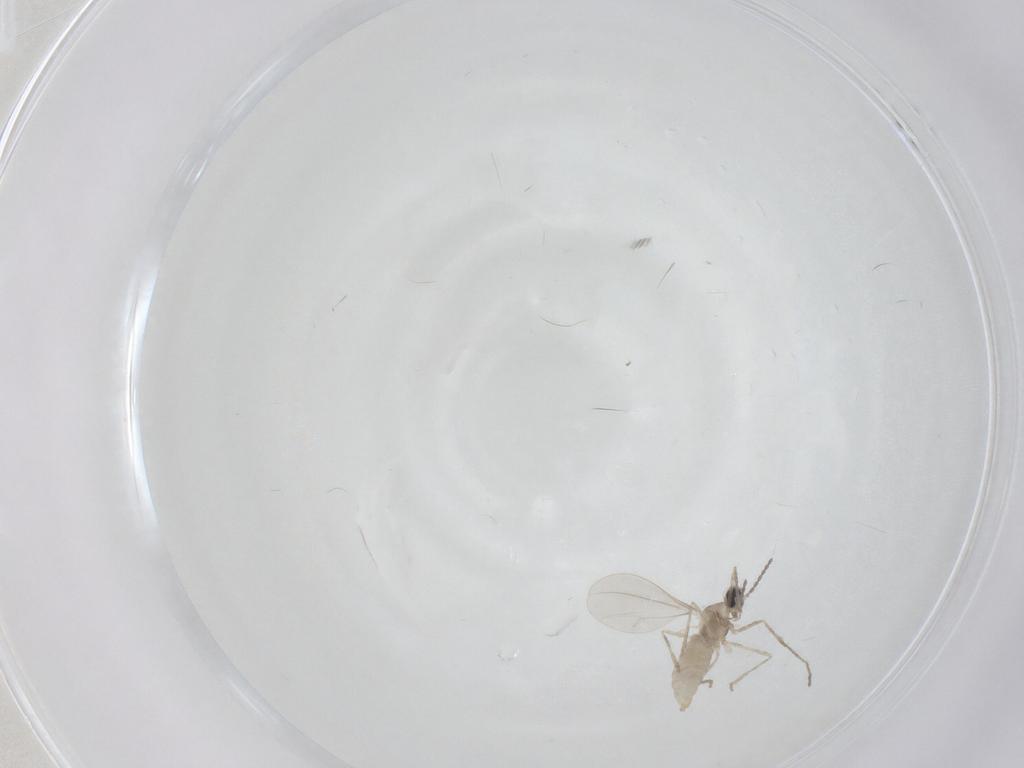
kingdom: Animalia
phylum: Arthropoda
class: Insecta
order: Diptera
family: Cecidomyiidae
